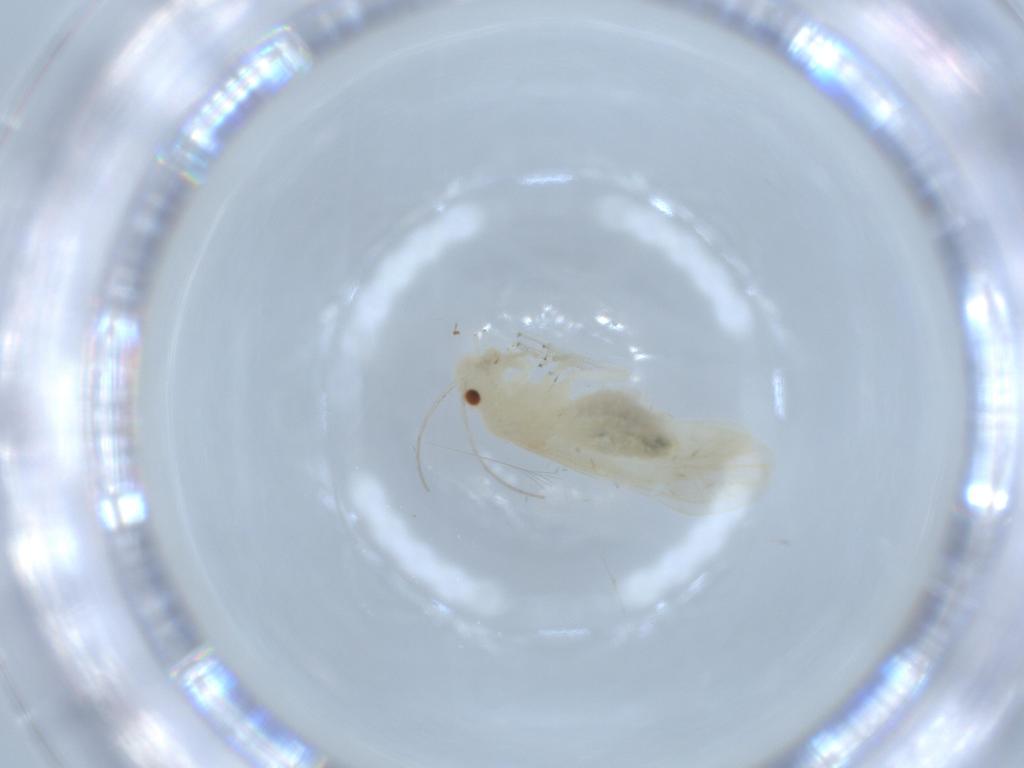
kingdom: Animalia
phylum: Arthropoda
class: Insecta
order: Psocodea
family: Caeciliusidae
